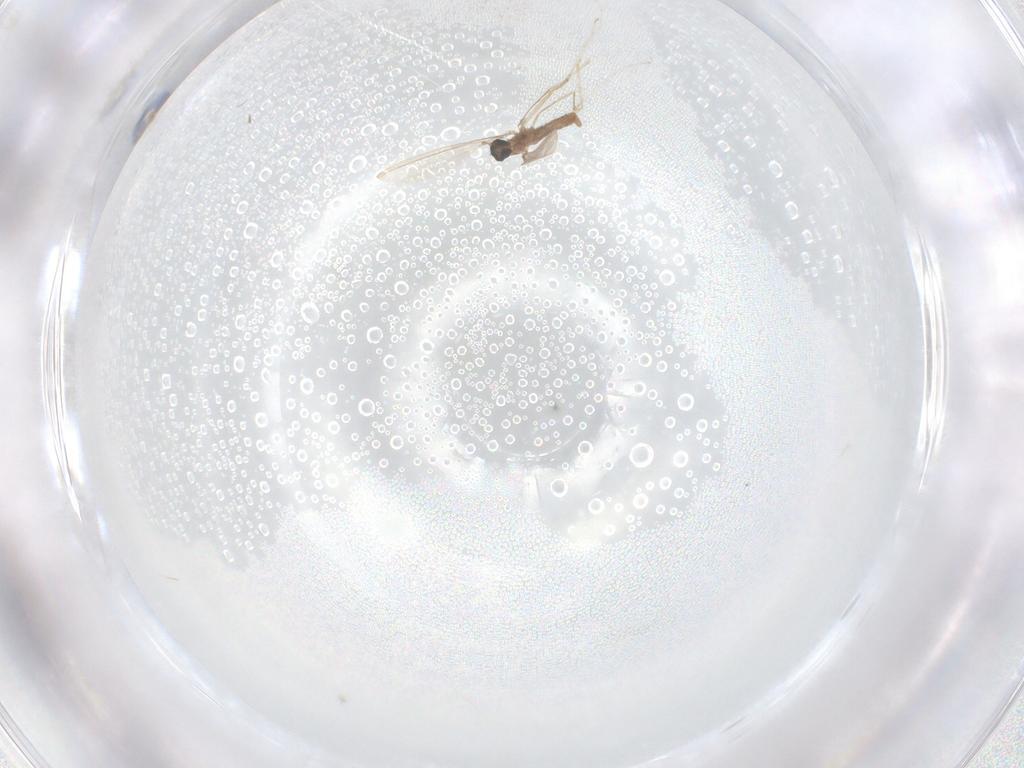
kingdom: Animalia
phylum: Arthropoda
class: Insecta
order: Diptera
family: Cecidomyiidae
